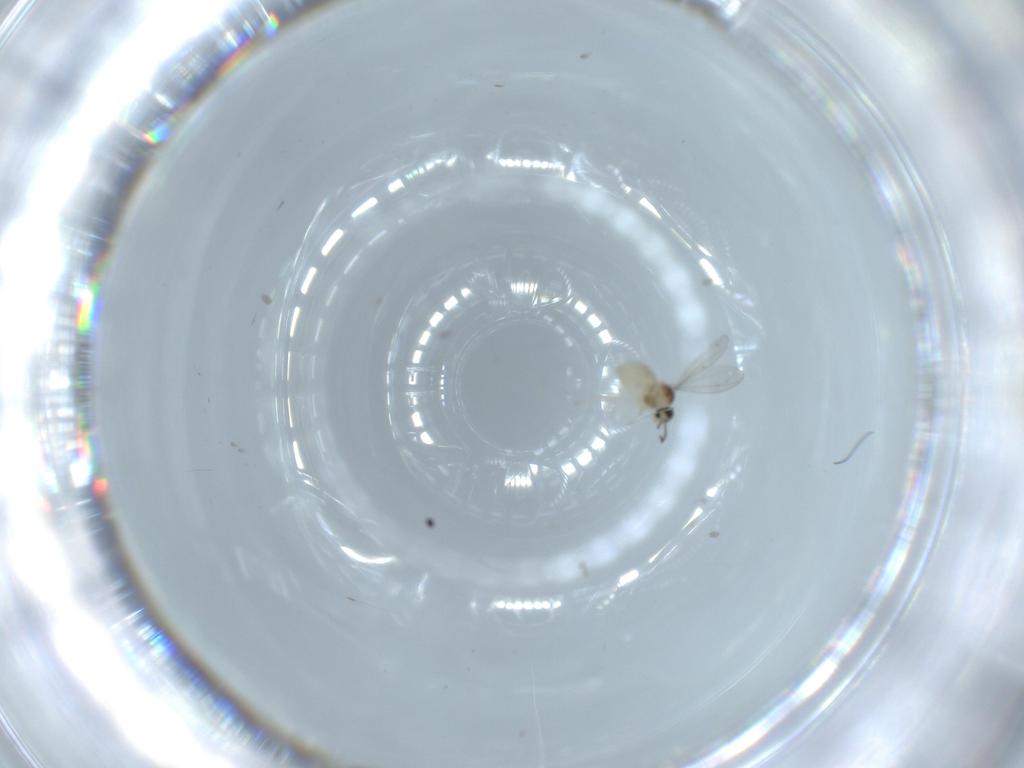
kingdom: Animalia
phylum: Arthropoda
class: Insecta
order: Diptera
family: Cecidomyiidae
